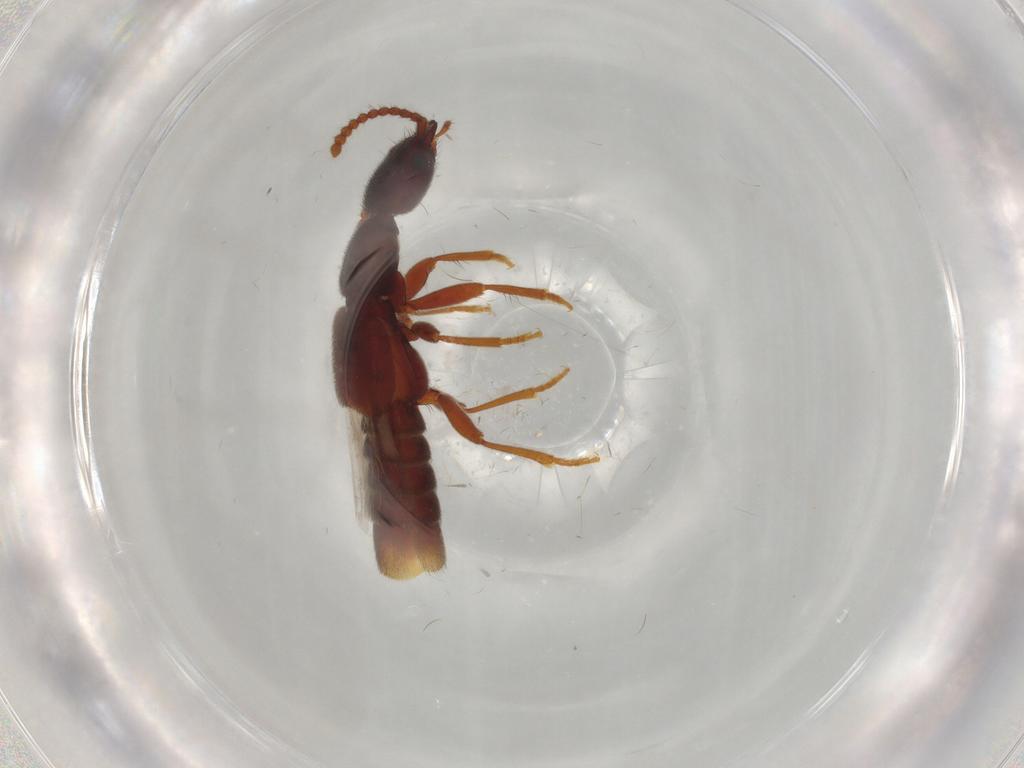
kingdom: Animalia
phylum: Arthropoda
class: Insecta
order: Coleoptera
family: Staphylinidae
